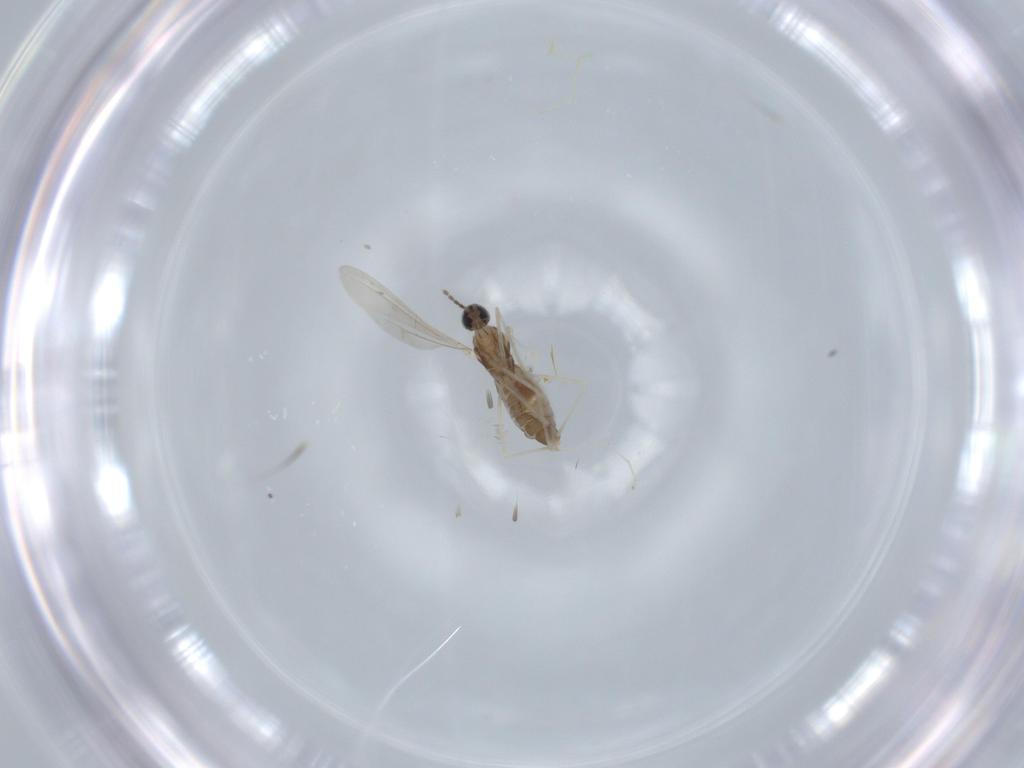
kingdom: Animalia
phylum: Arthropoda
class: Insecta
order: Diptera
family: Cecidomyiidae
